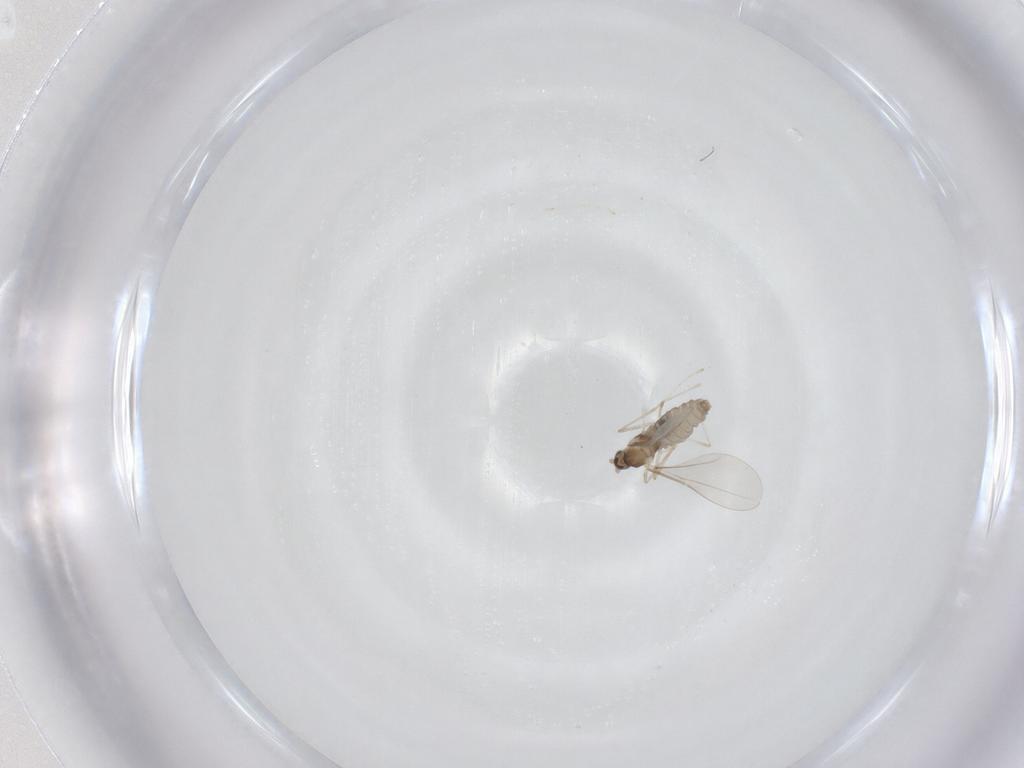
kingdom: Animalia
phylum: Arthropoda
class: Insecta
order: Diptera
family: Cecidomyiidae
